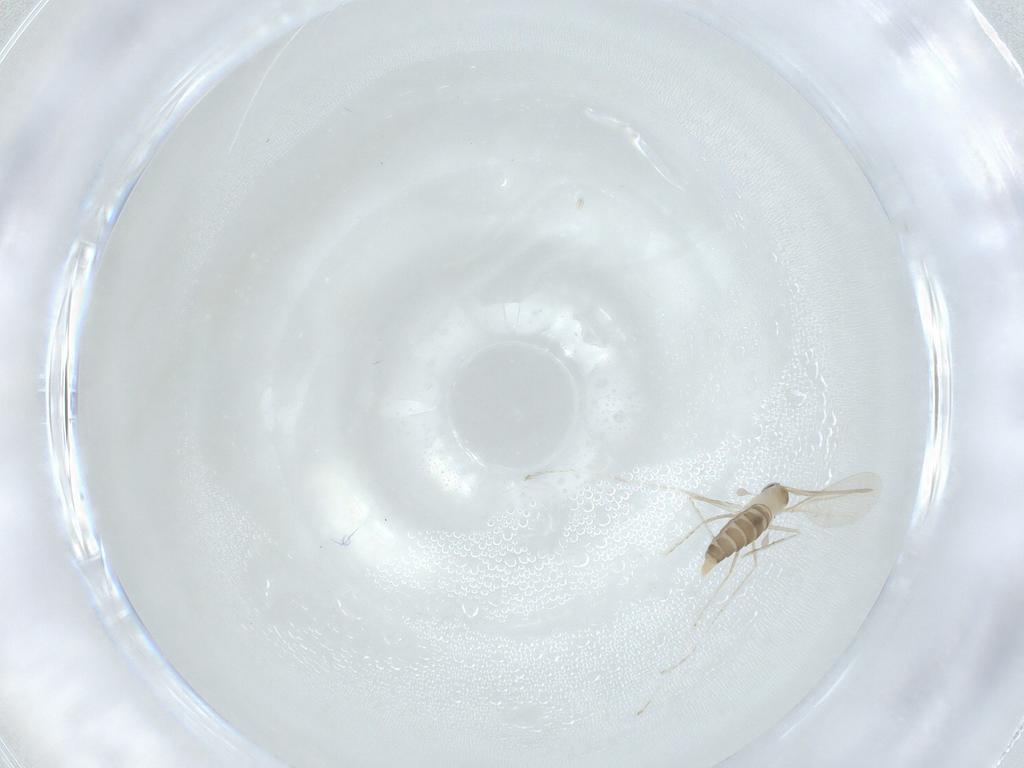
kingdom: Animalia
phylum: Arthropoda
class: Insecta
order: Diptera
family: Cecidomyiidae
